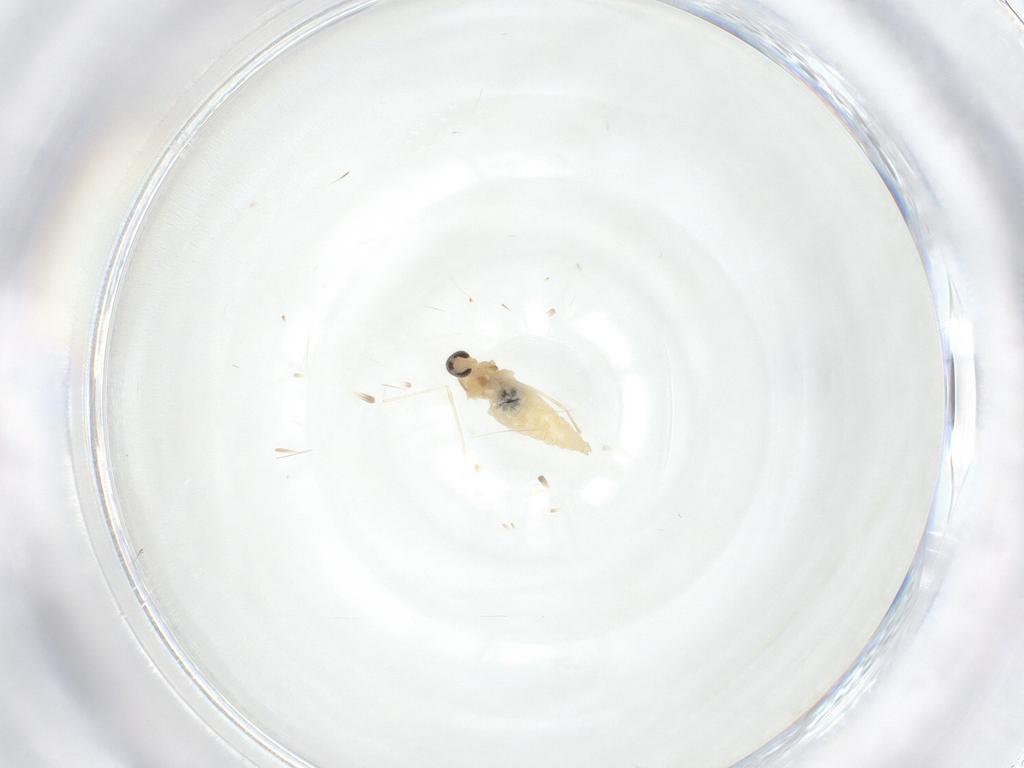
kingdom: Animalia
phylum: Arthropoda
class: Insecta
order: Diptera
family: Cecidomyiidae
